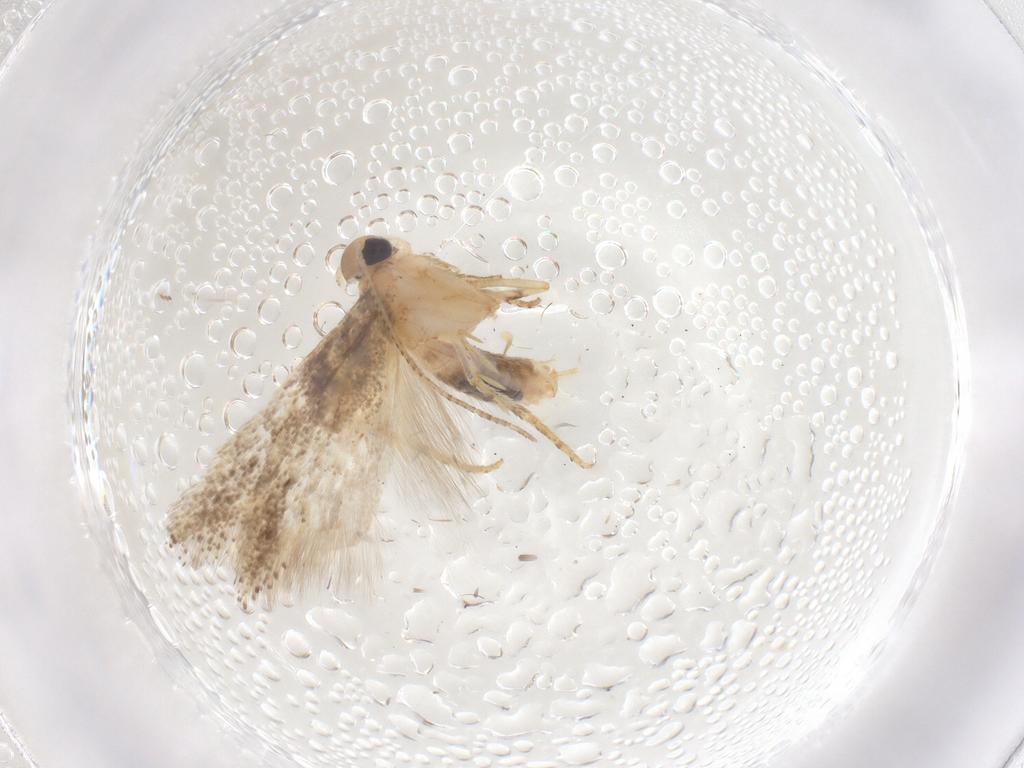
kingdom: Animalia
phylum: Arthropoda
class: Insecta
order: Lepidoptera
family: Gelechiidae
